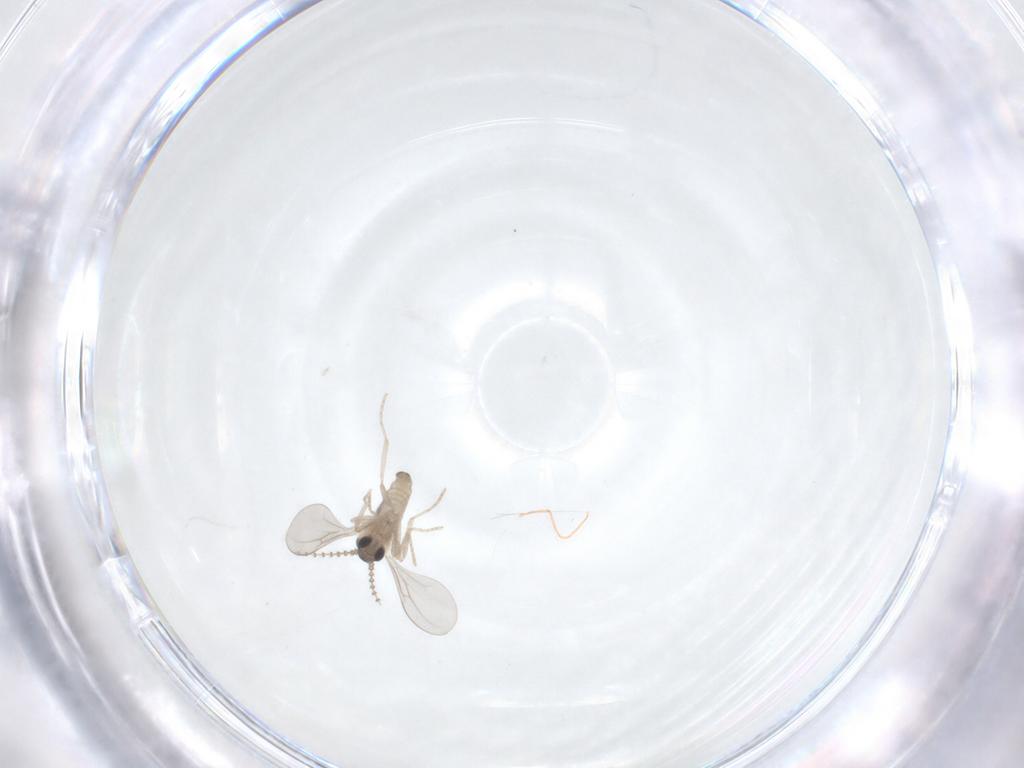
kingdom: Animalia
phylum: Arthropoda
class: Insecta
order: Diptera
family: Cecidomyiidae
